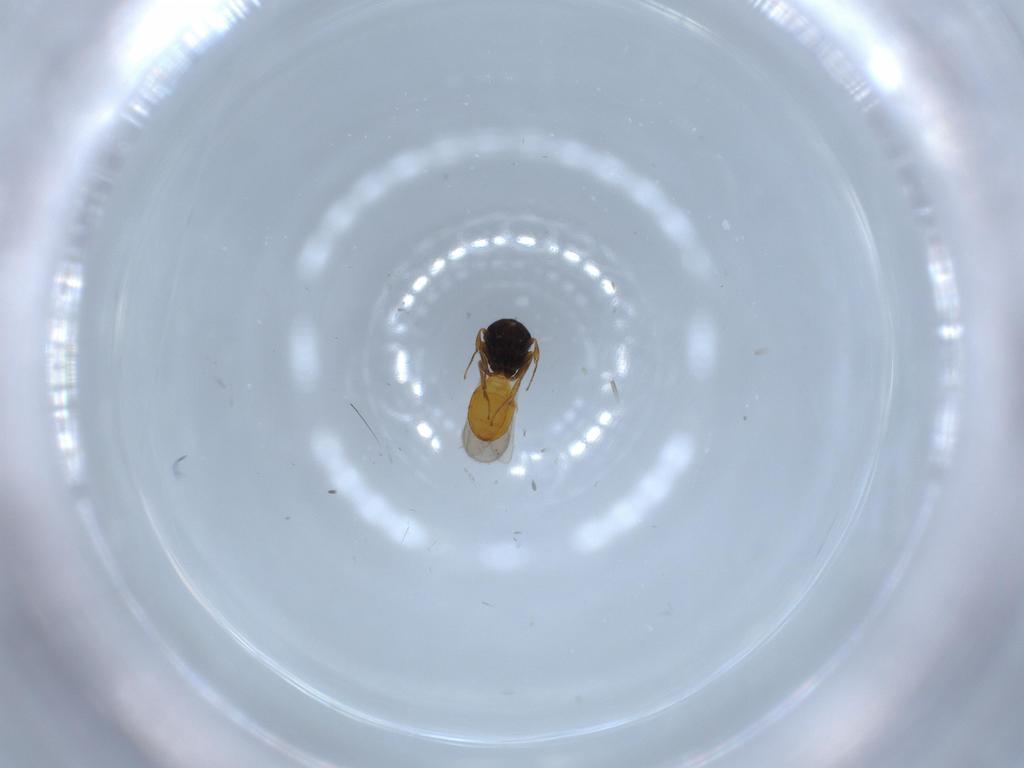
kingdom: Animalia
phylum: Arthropoda
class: Insecta
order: Hymenoptera
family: Scelionidae
